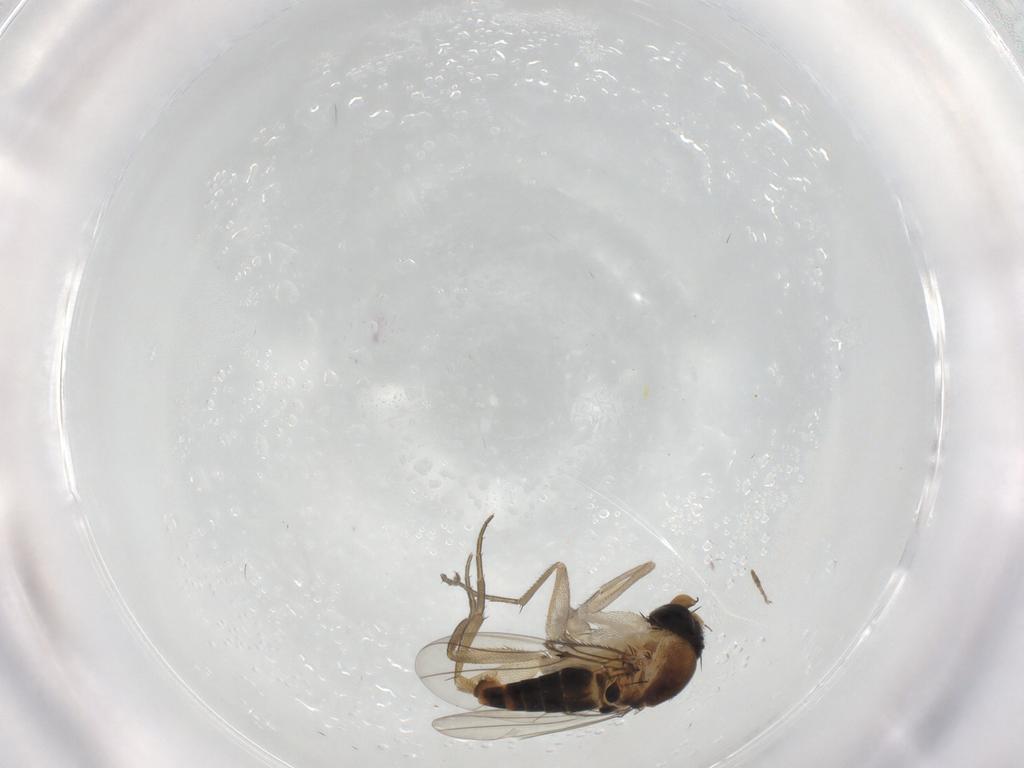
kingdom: Animalia
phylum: Arthropoda
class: Insecta
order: Diptera
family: Phoridae
